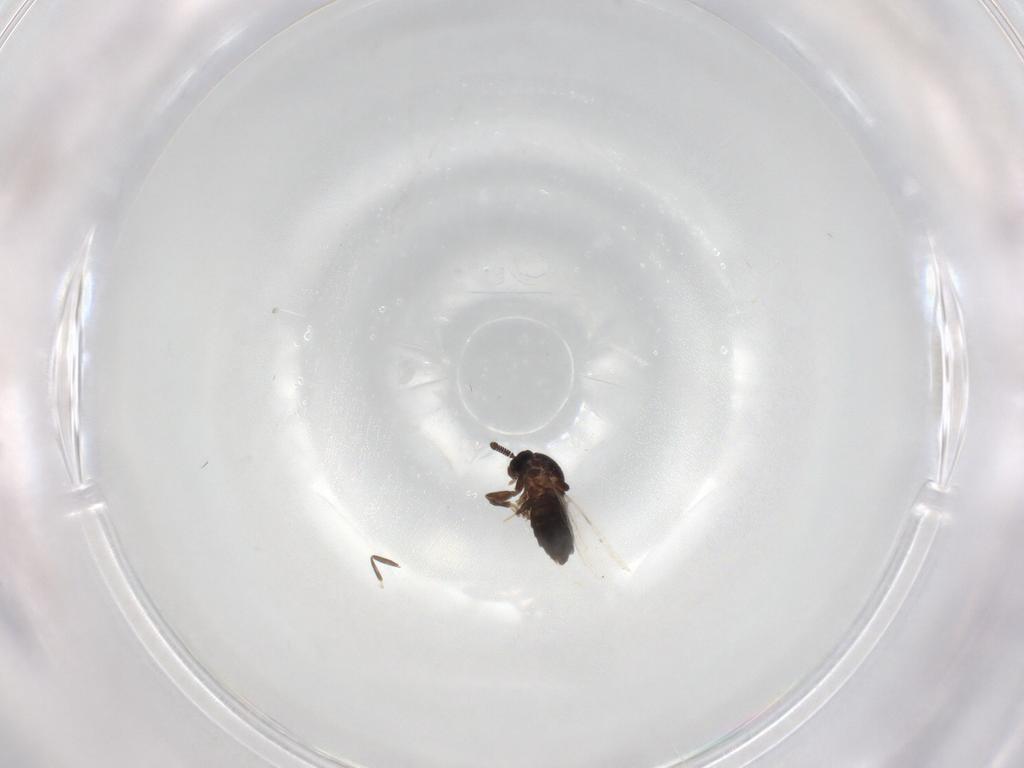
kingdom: Animalia
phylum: Arthropoda
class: Insecta
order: Diptera
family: Scatopsidae
